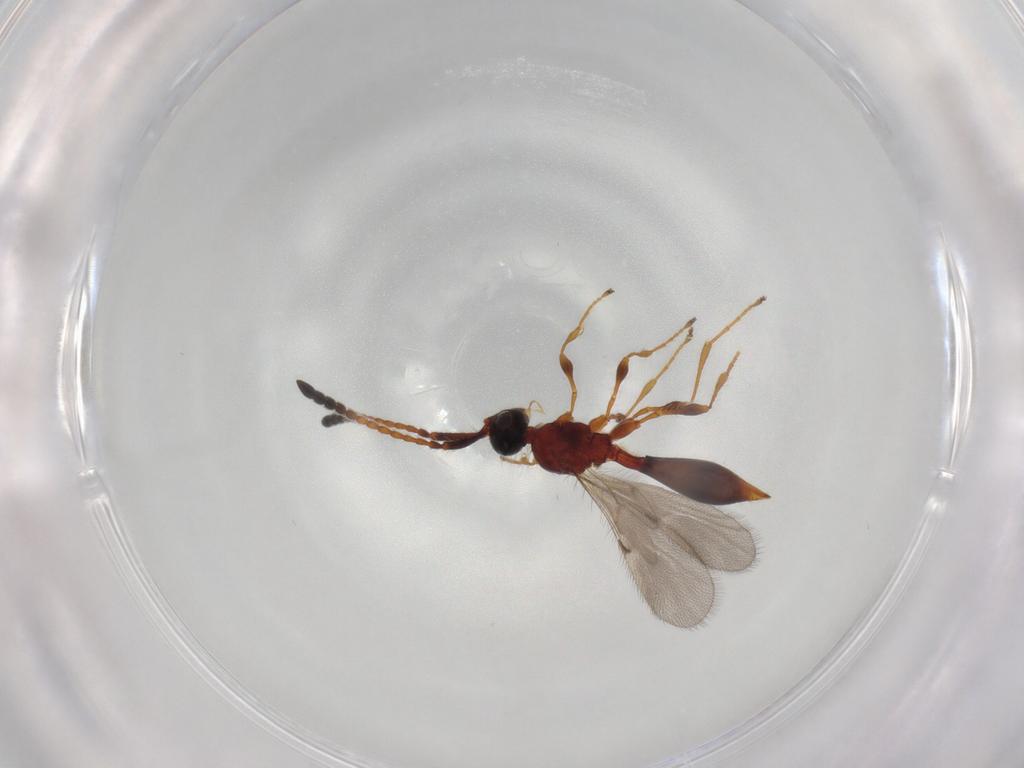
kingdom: Animalia
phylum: Arthropoda
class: Insecta
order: Hymenoptera
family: Diapriidae
